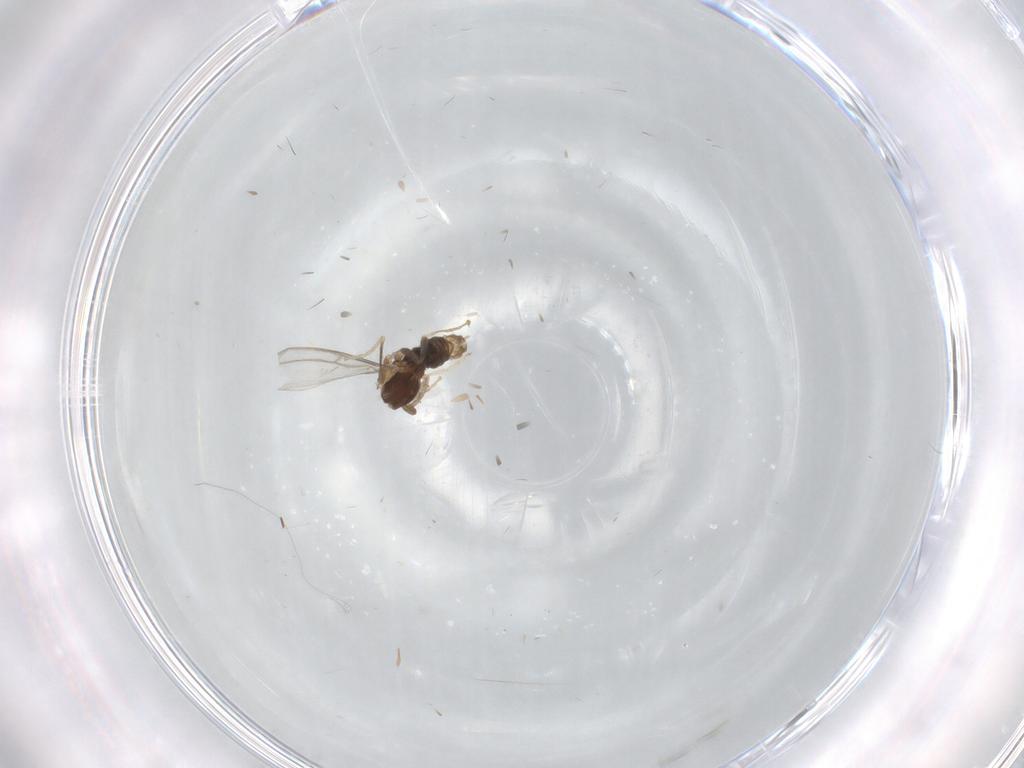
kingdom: Animalia
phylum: Arthropoda
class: Insecta
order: Diptera
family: Cecidomyiidae
